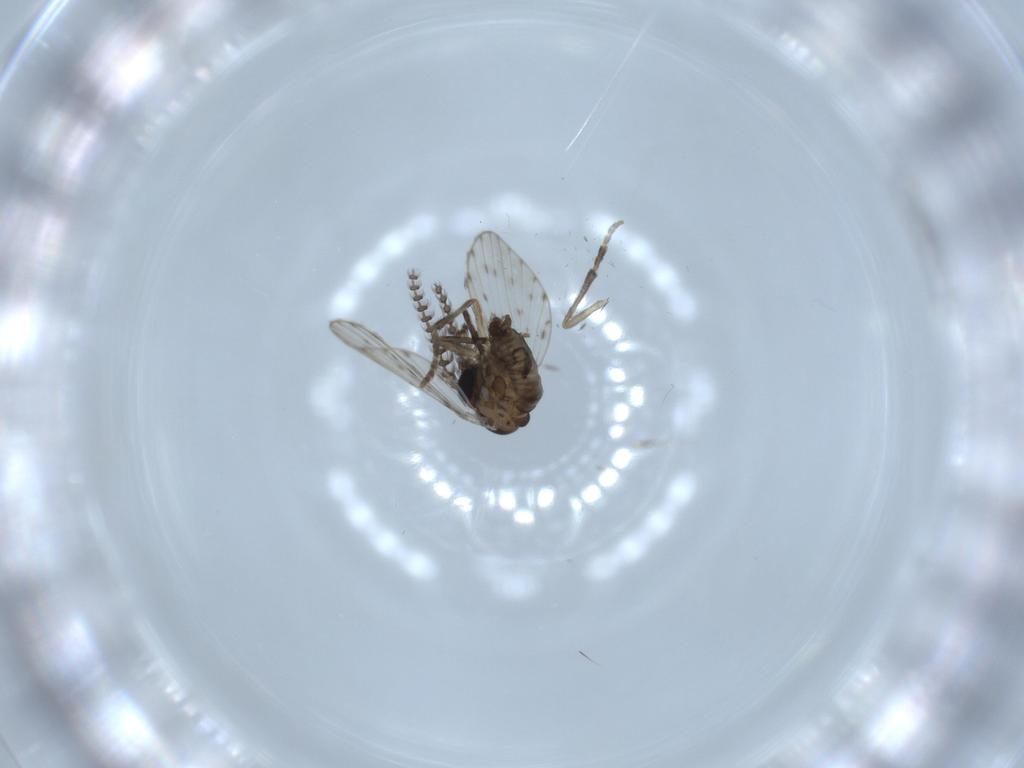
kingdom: Animalia
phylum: Arthropoda
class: Insecta
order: Diptera
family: Psychodidae
